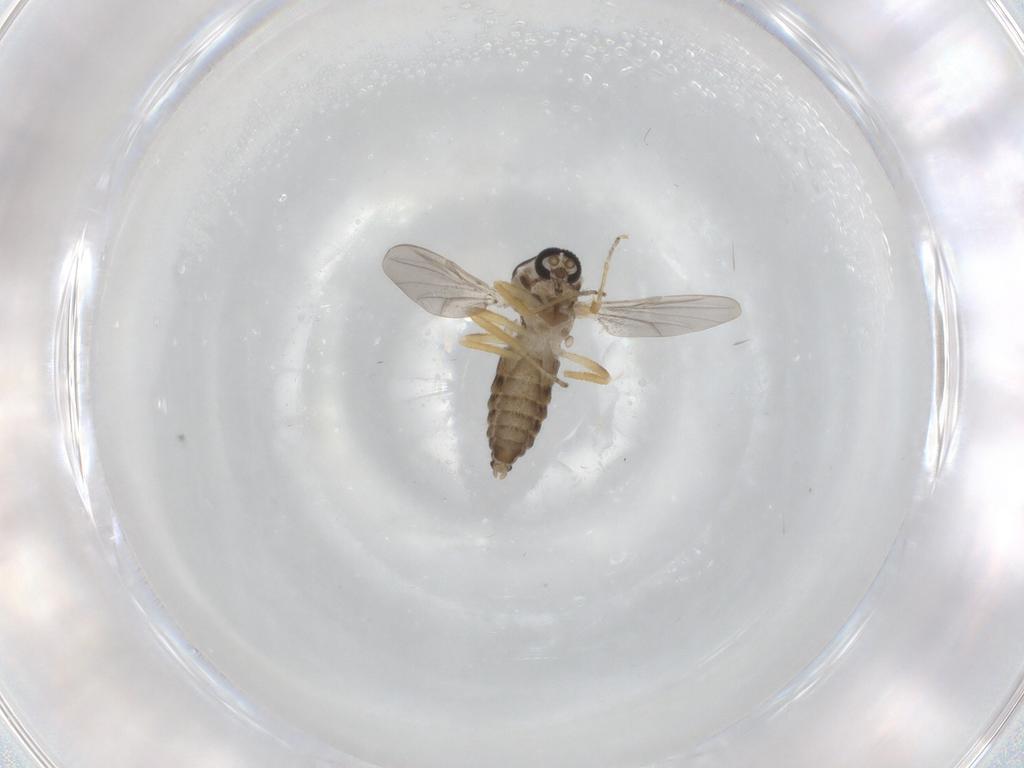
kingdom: Animalia
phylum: Arthropoda
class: Insecta
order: Diptera
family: Ceratopogonidae
